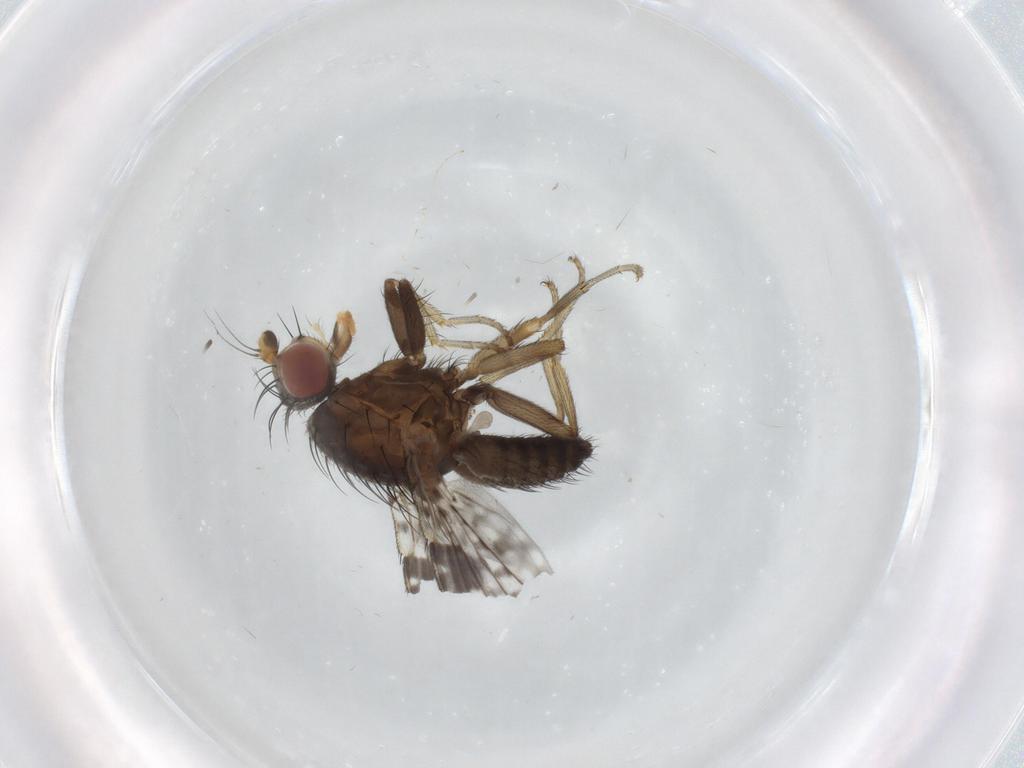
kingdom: Animalia
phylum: Arthropoda
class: Insecta
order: Diptera
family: Tephritidae
